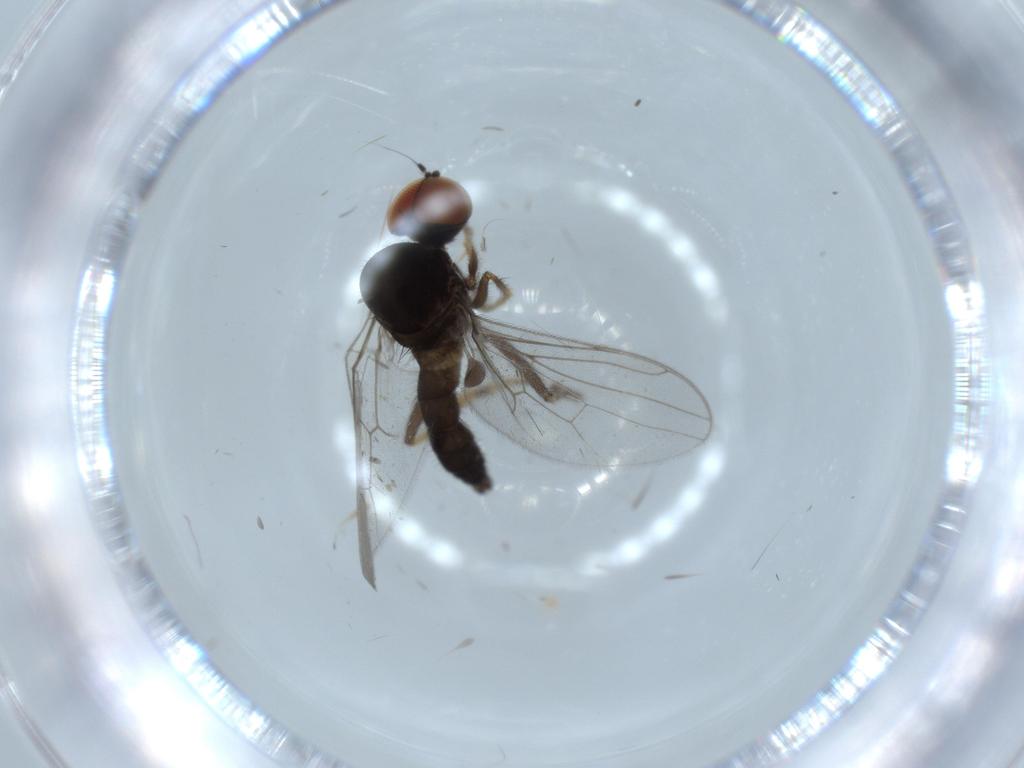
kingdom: Animalia
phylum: Arthropoda
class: Insecta
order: Diptera
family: Hybotidae
